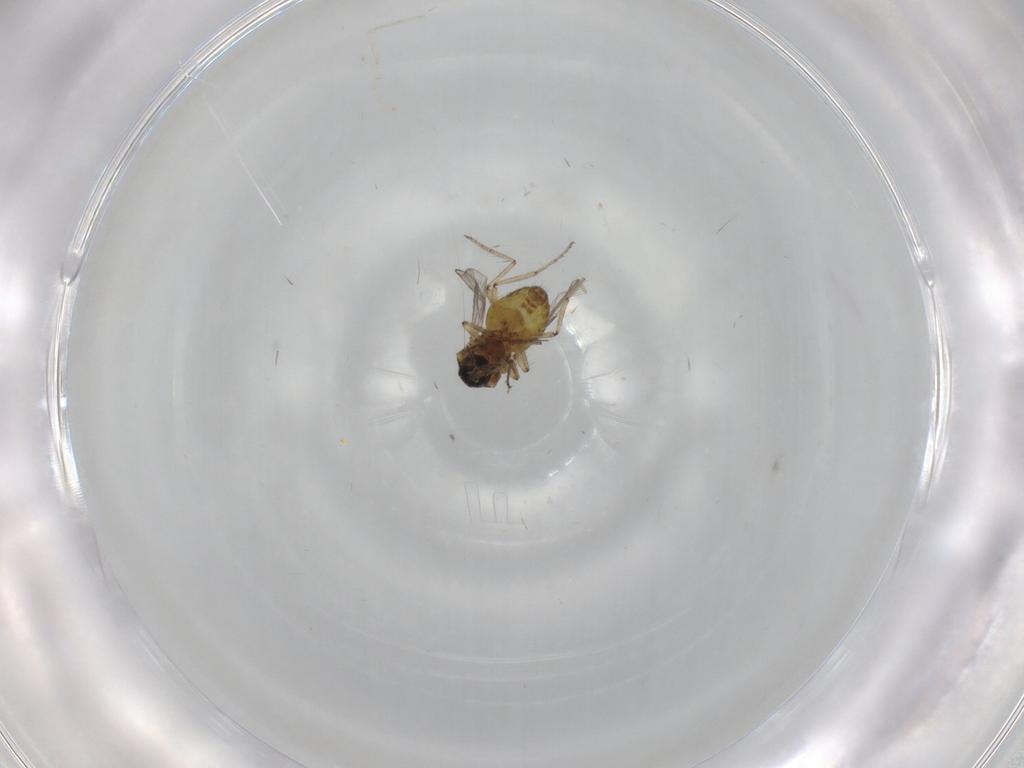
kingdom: Animalia
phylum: Arthropoda
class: Insecta
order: Diptera
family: Ceratopogonidae
